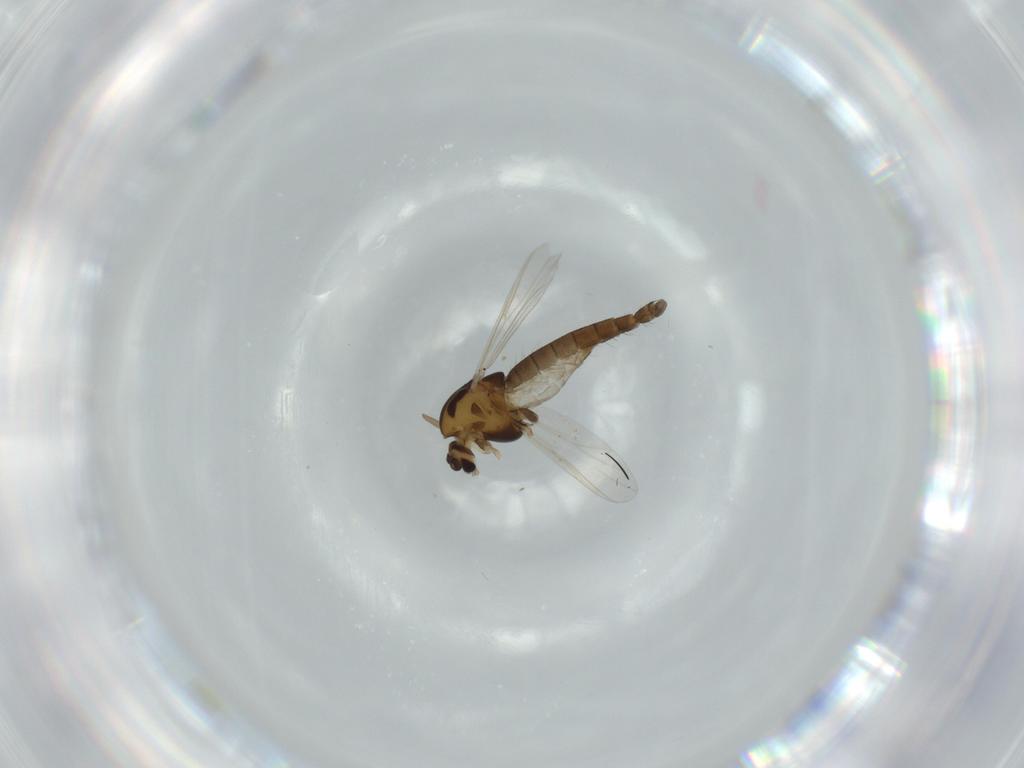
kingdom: Animalia
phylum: Arthropoda
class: Insecta
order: Diptera
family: Chironomidae
